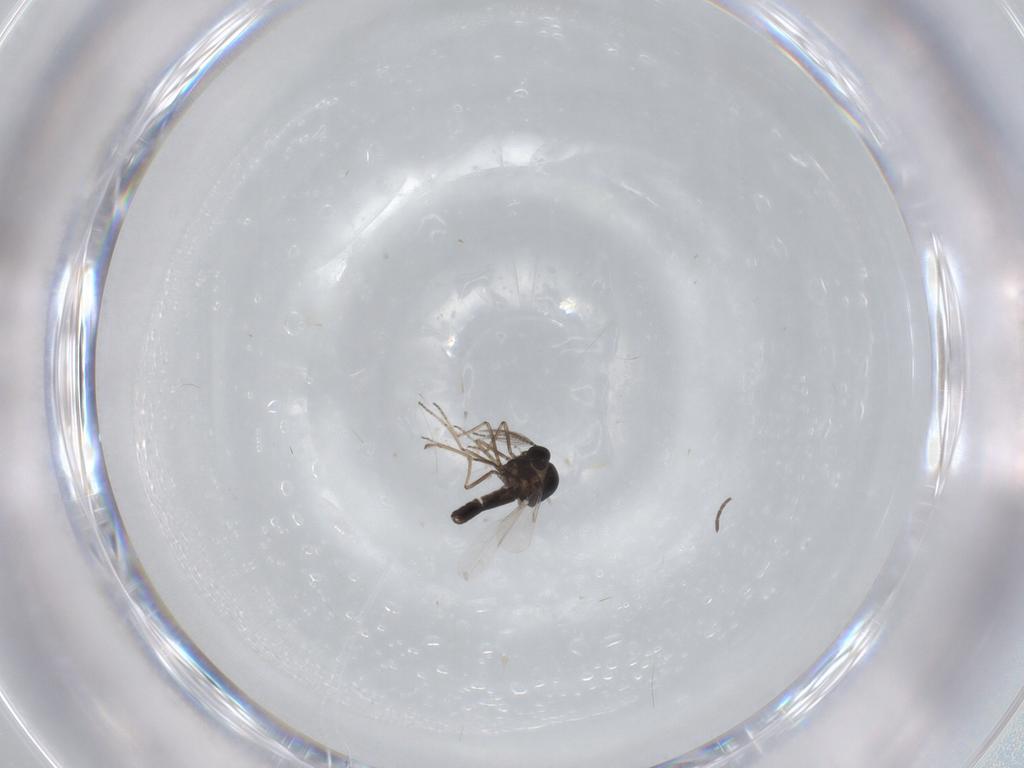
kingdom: Animalia
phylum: Arthropoda
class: Insecta
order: Diptera
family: Ceratopogonidae
